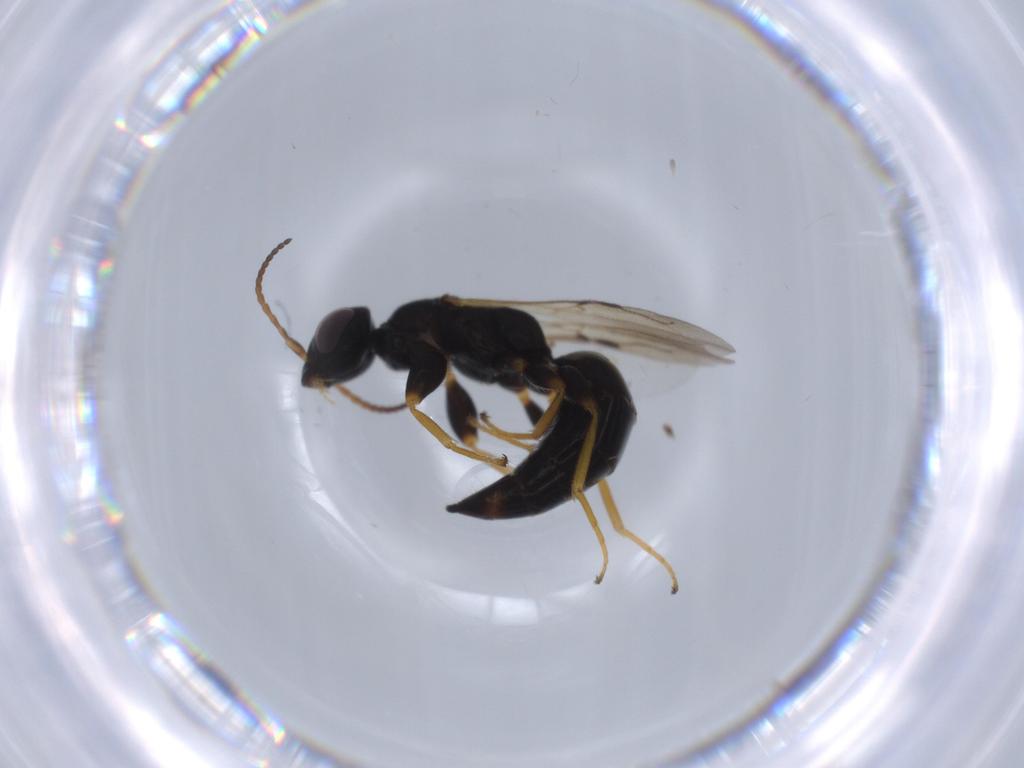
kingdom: Animalia
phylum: Arthropoda
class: Insecta
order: Hymenoptera
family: Bethylidae
